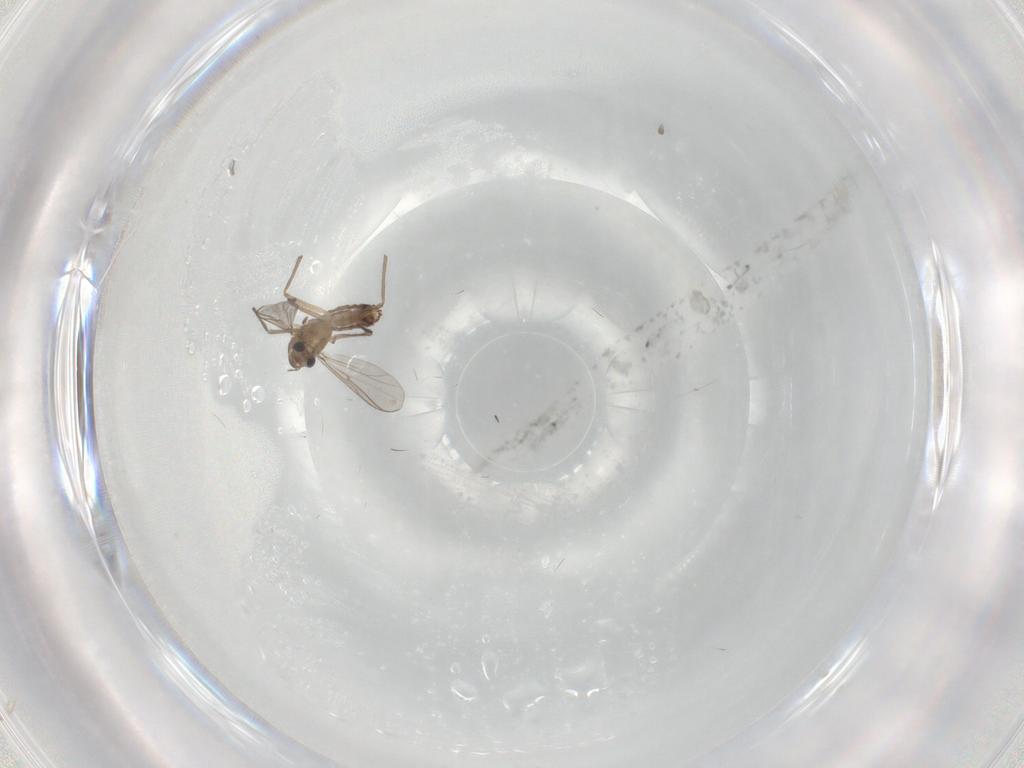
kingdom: Animalia
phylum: Arthropoda
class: Insecta
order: Diptera
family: Chironomidae
